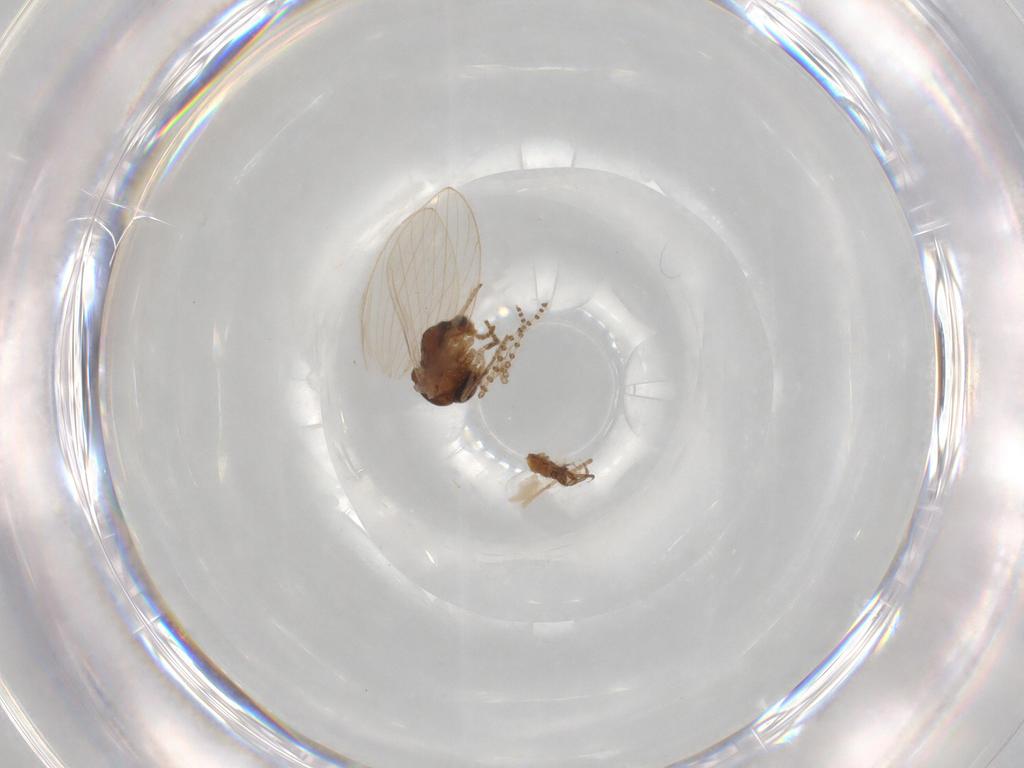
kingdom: Animalia
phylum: Arthropoda
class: Insecta
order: Diptera
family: Psychodidae
